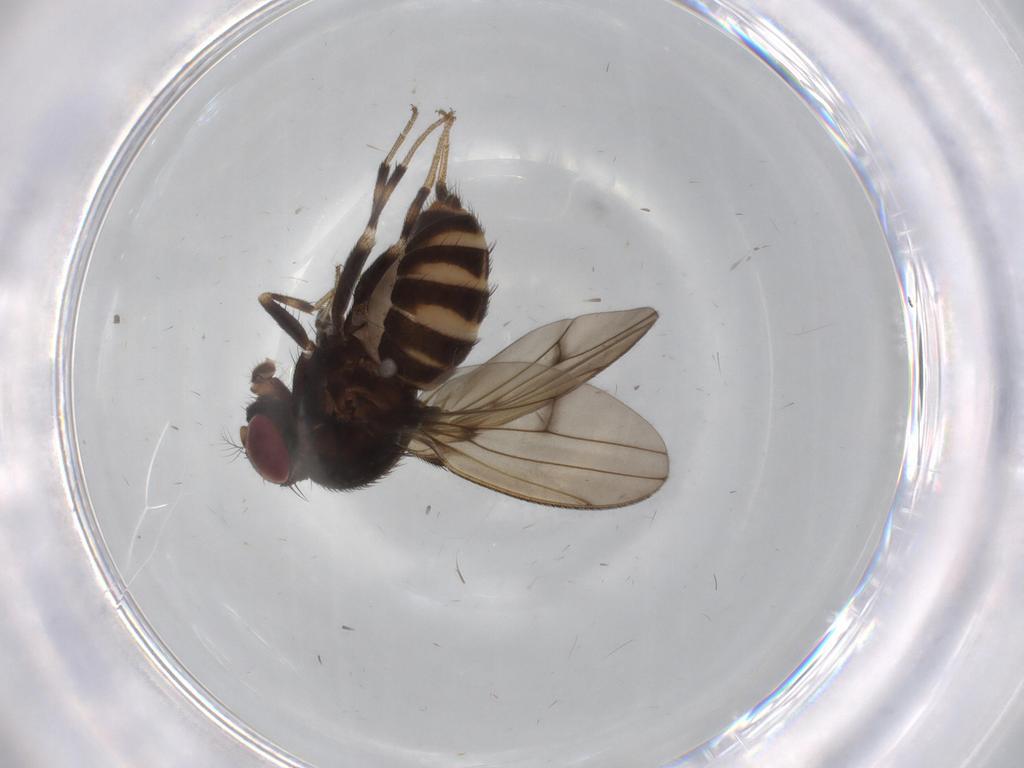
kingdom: Animalia
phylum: Arthropoda
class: Insecta
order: Diptera
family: Drosophilidae
